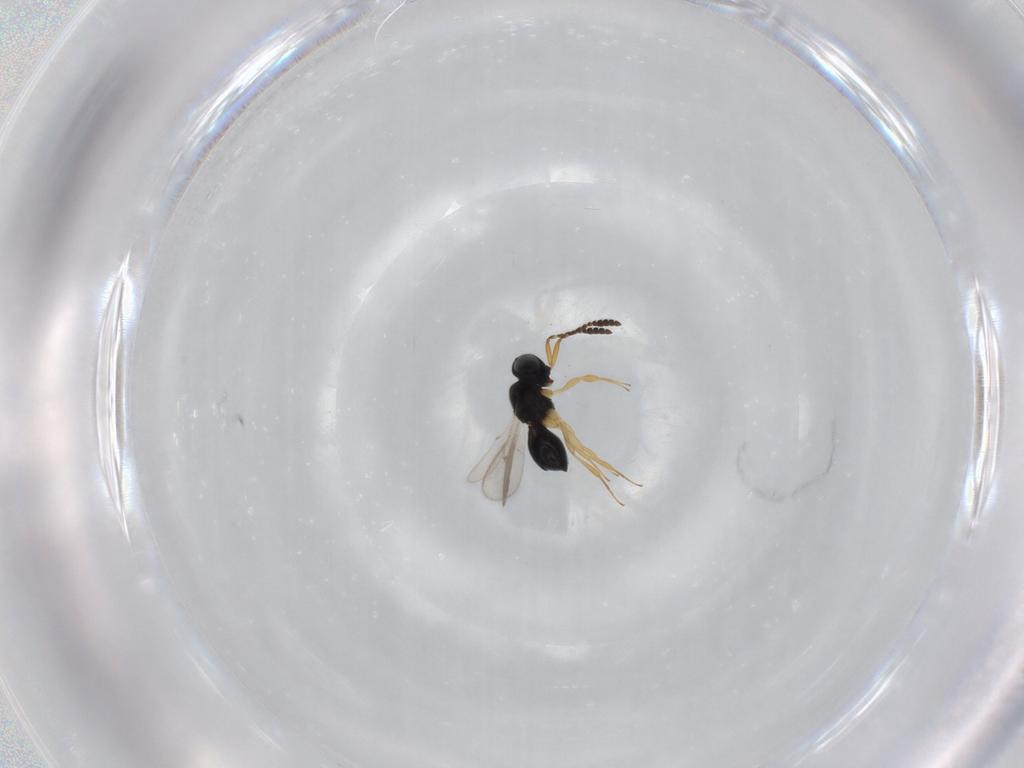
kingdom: Animalia
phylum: Arthropoda
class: Insecta
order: Hymenoptera
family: Scelionidae
